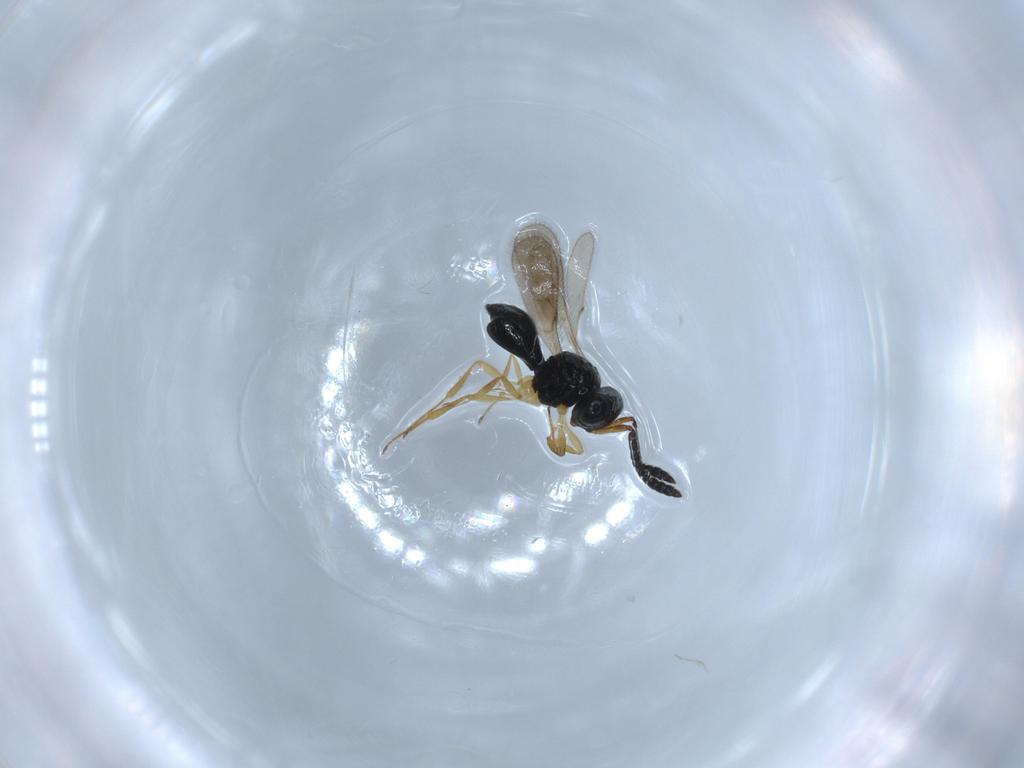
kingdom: Animalia
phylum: Arthropoda
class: Insecta
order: Hymenoptera
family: Scelionidae
